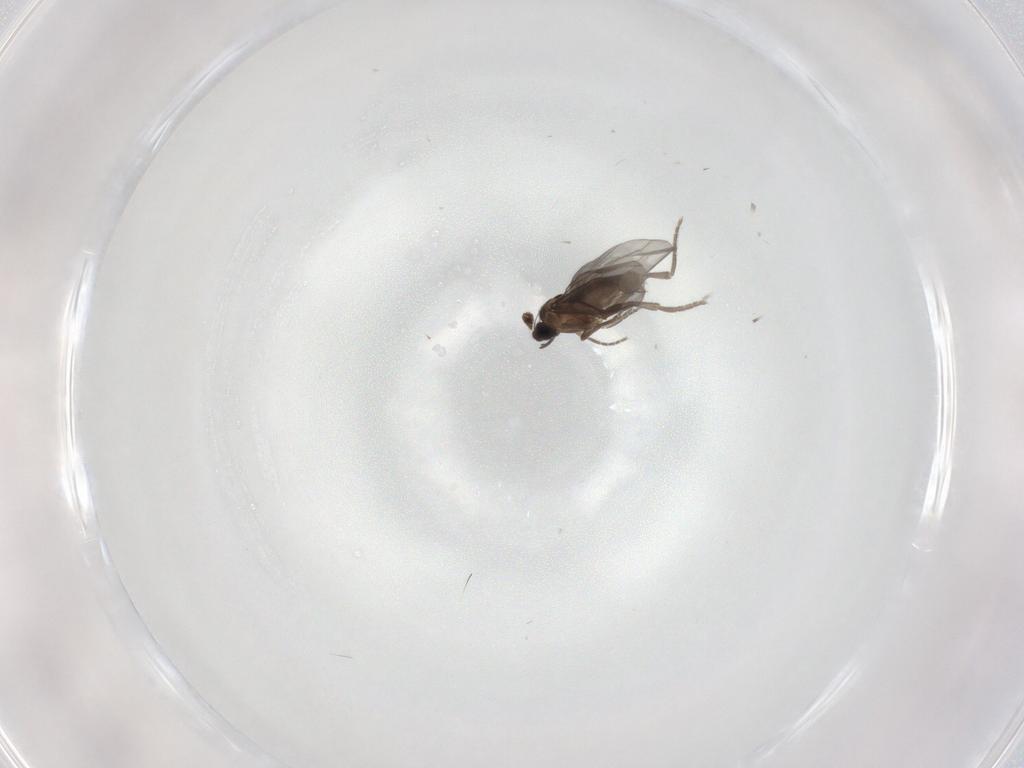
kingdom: Animalia
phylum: Arthropoda
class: Insecta
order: Diptera
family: Phoridae
